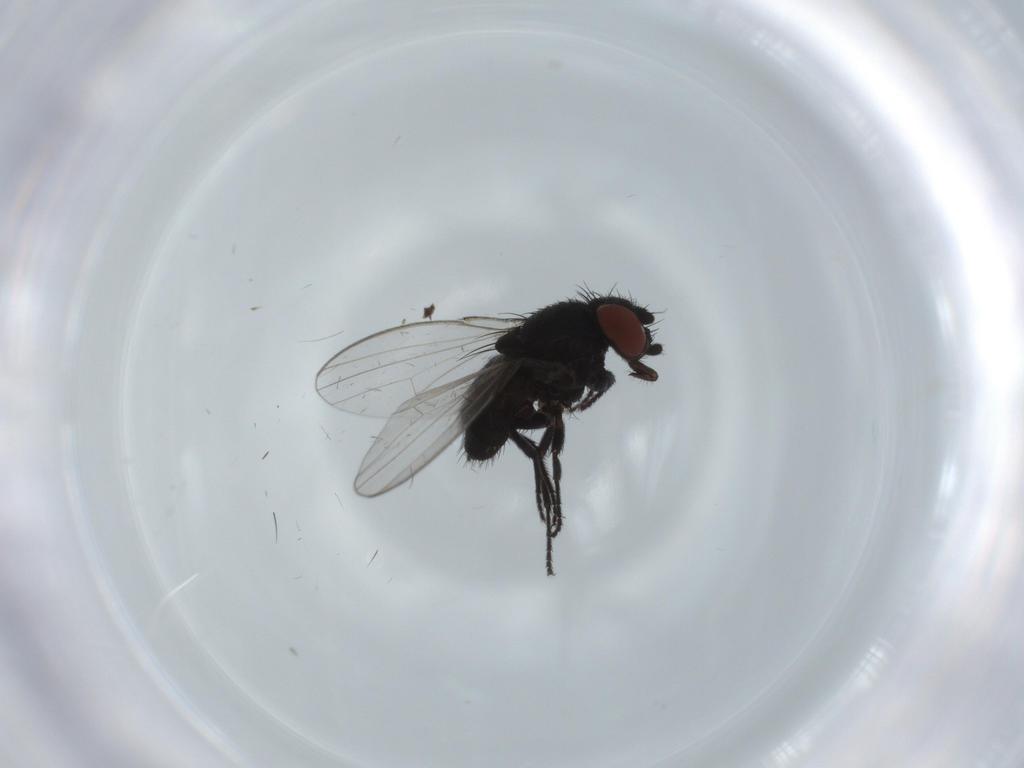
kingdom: Animalia
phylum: Arthropoda
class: Insecta
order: Diptera
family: Milichiidae
